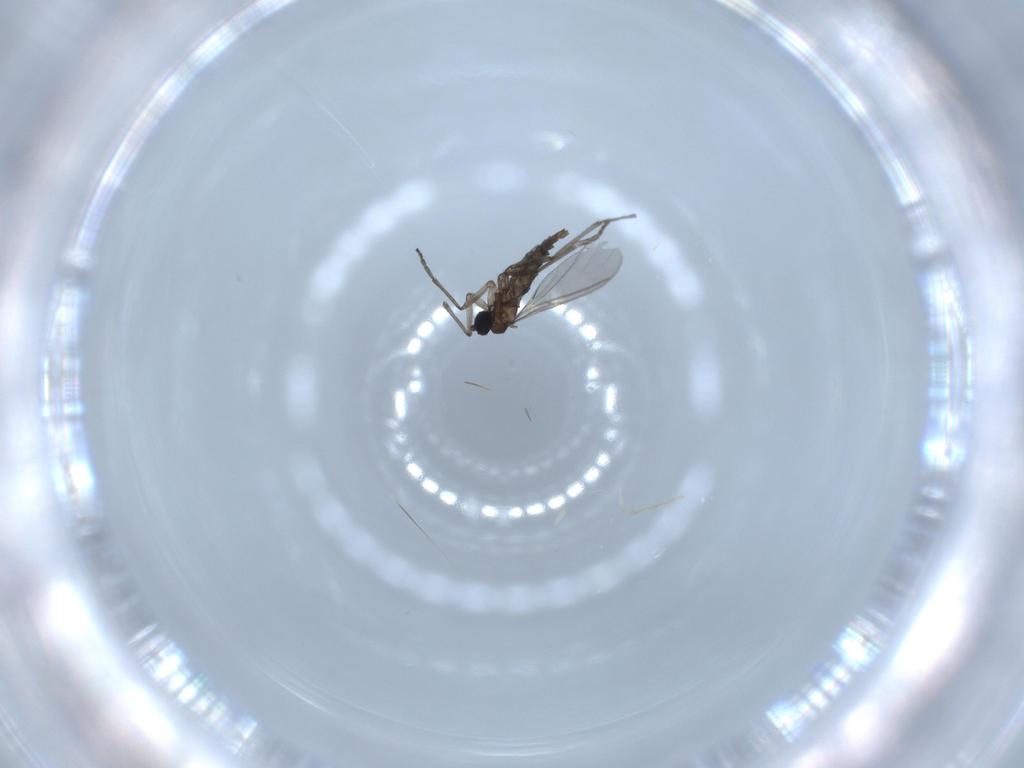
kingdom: Animalia
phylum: Arthropoda
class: Insecta
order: Diptera
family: Sciaridae
